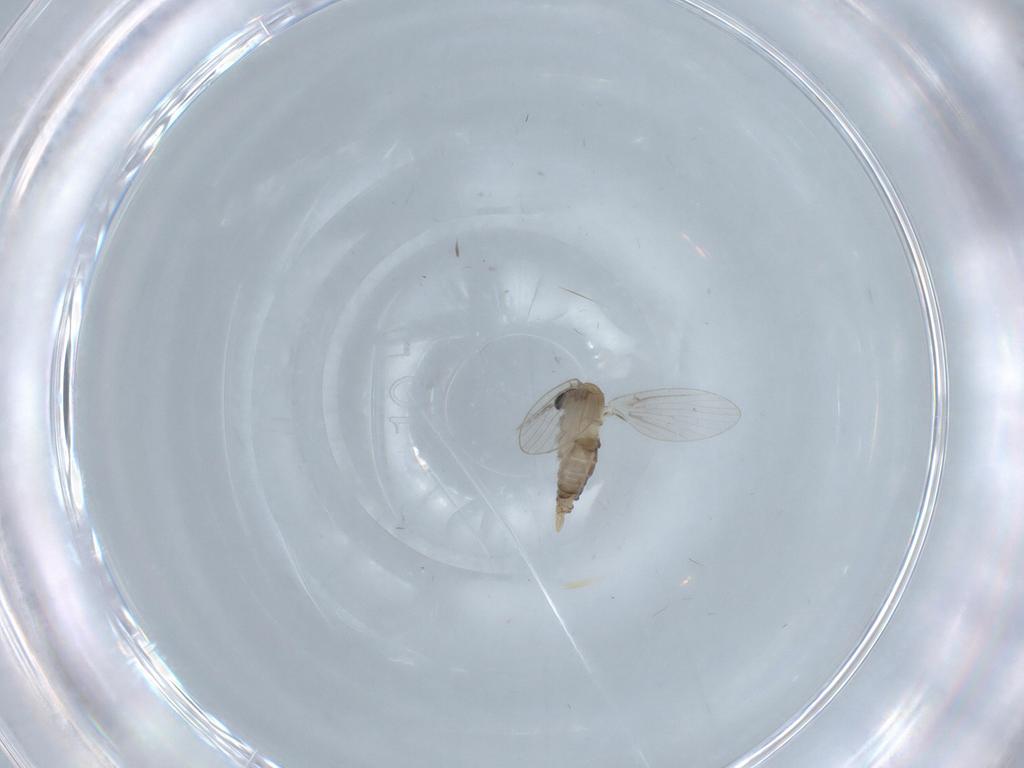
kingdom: Animalia
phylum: Arthropoda
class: Insecta
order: Diptera
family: Psychodidae
